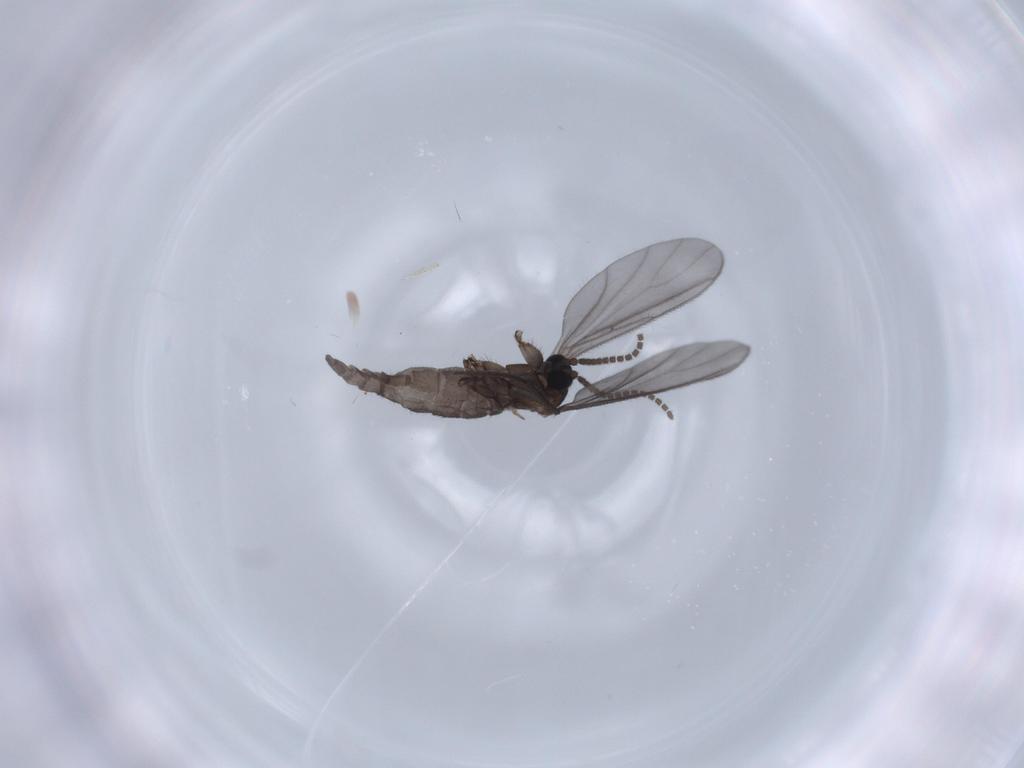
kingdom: Animalia
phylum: Arthropoda
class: Insecta
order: Diptera
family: Sciaridae
